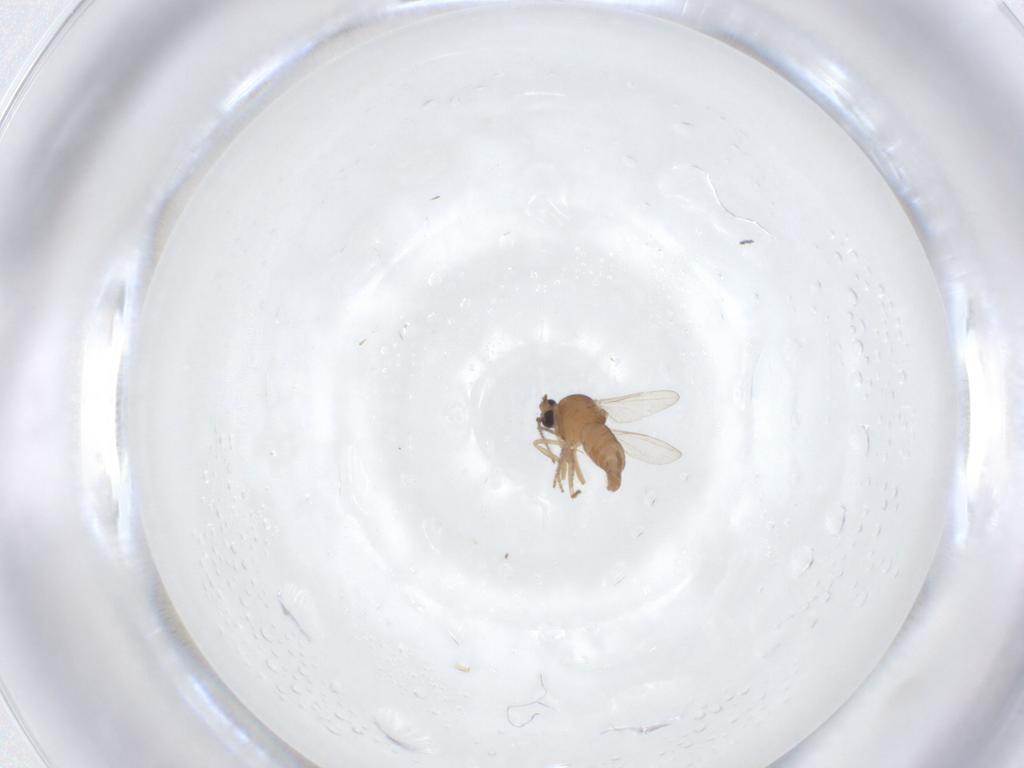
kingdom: Animalia
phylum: Arthropoda
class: Insecta
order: Diptera
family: Ceratopogonidae
